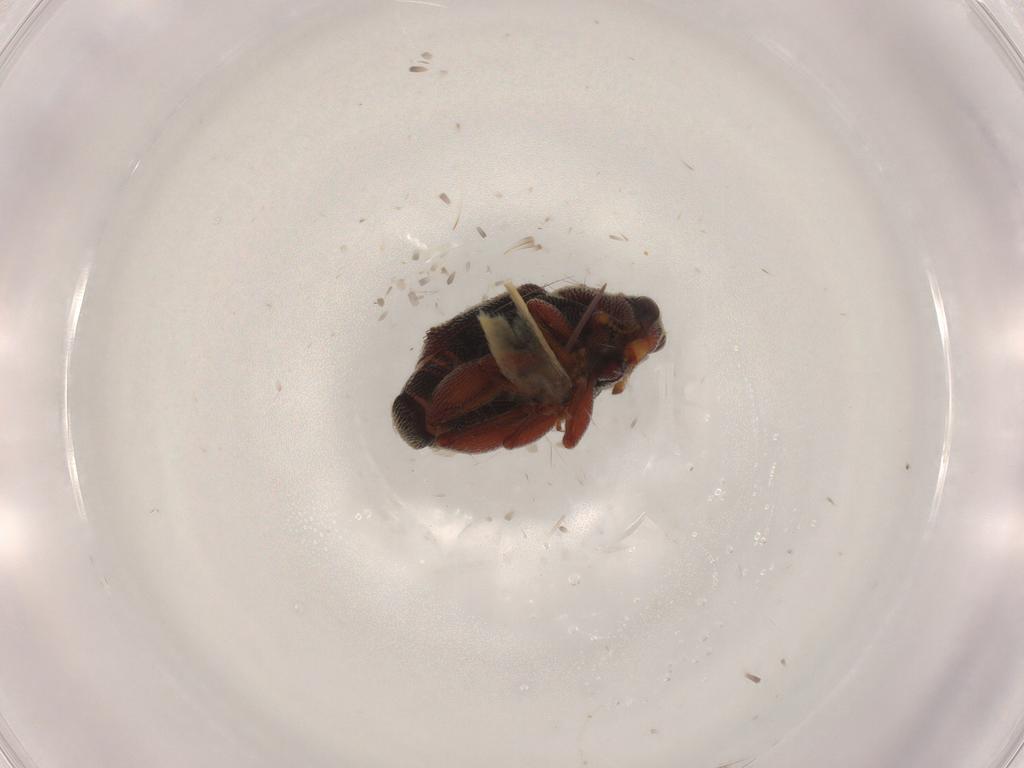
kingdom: Animalia
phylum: Arthropoda
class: Insecta
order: Coleoptera
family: Curculionidae
